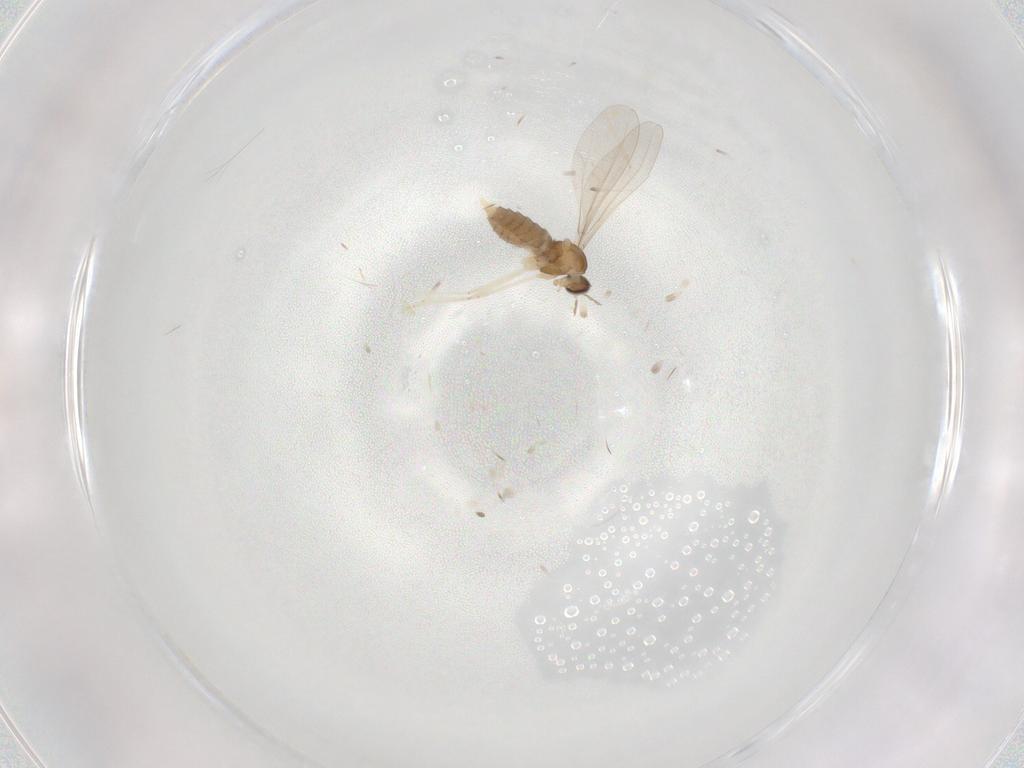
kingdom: Animalia
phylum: Arthropoda
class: Insecta
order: Diptera
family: Cecidomyiidae
